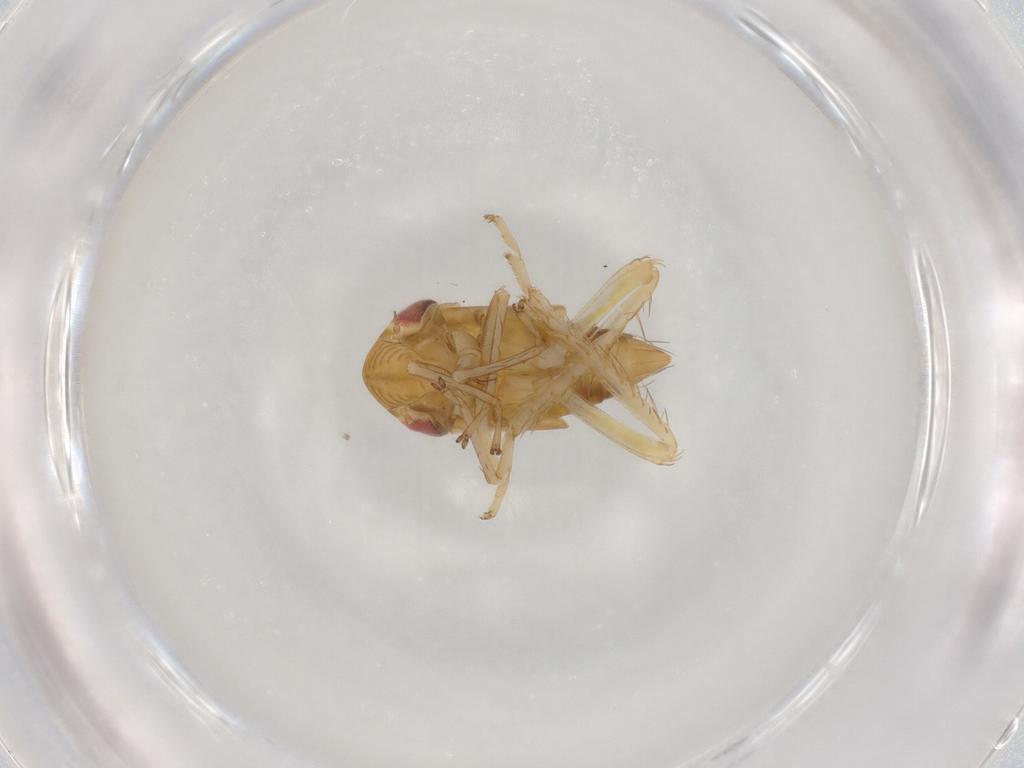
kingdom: Animalia
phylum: Arthropoda
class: Insecta
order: Hemiptera
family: Cicadellidae
